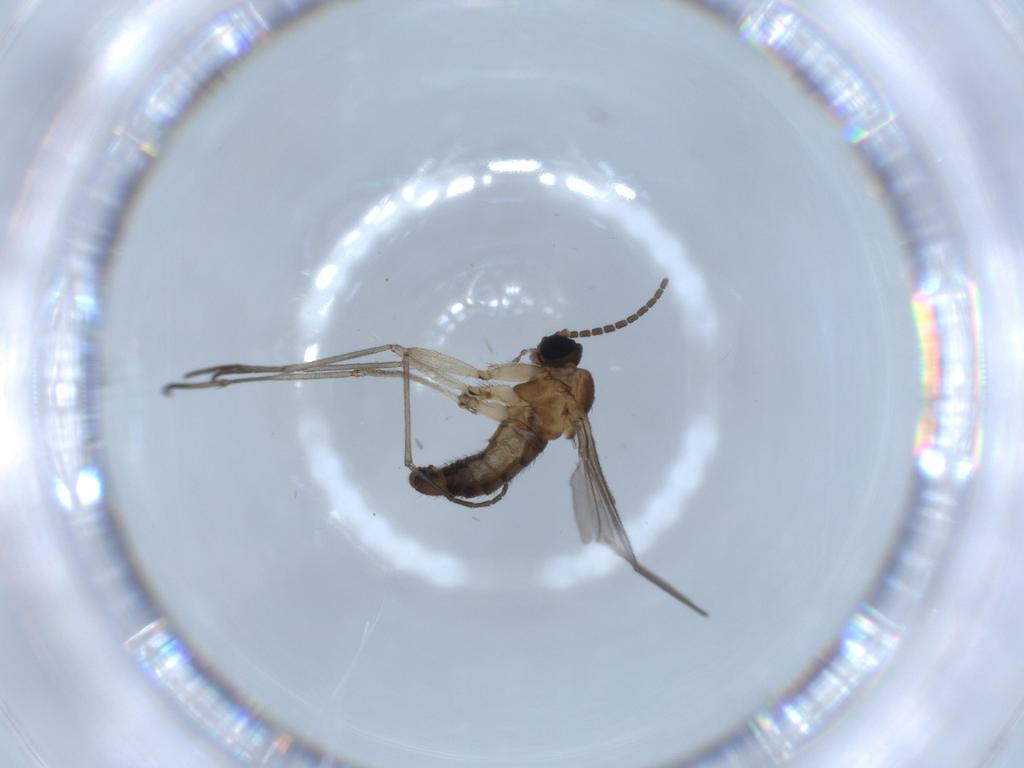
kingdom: Animalia
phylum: Arthropoda
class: Insecta
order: Diptera
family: Sciaridae
